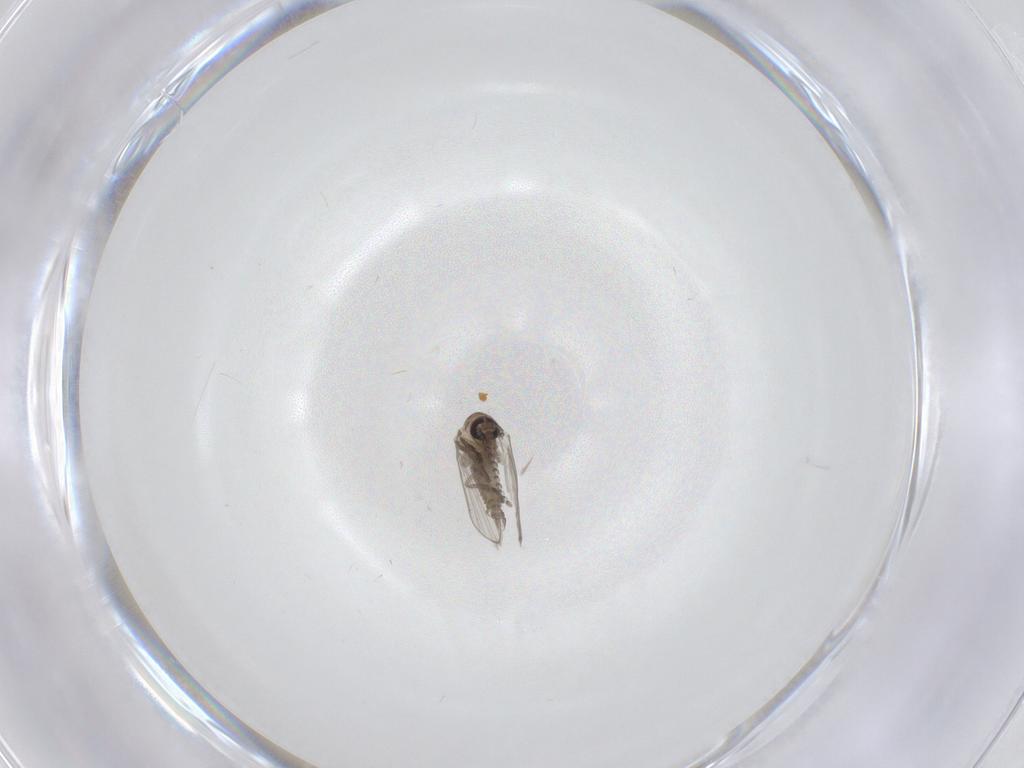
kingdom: Animalia
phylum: Arthropoda
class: Insecta
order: Diptera
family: Psychodidae
